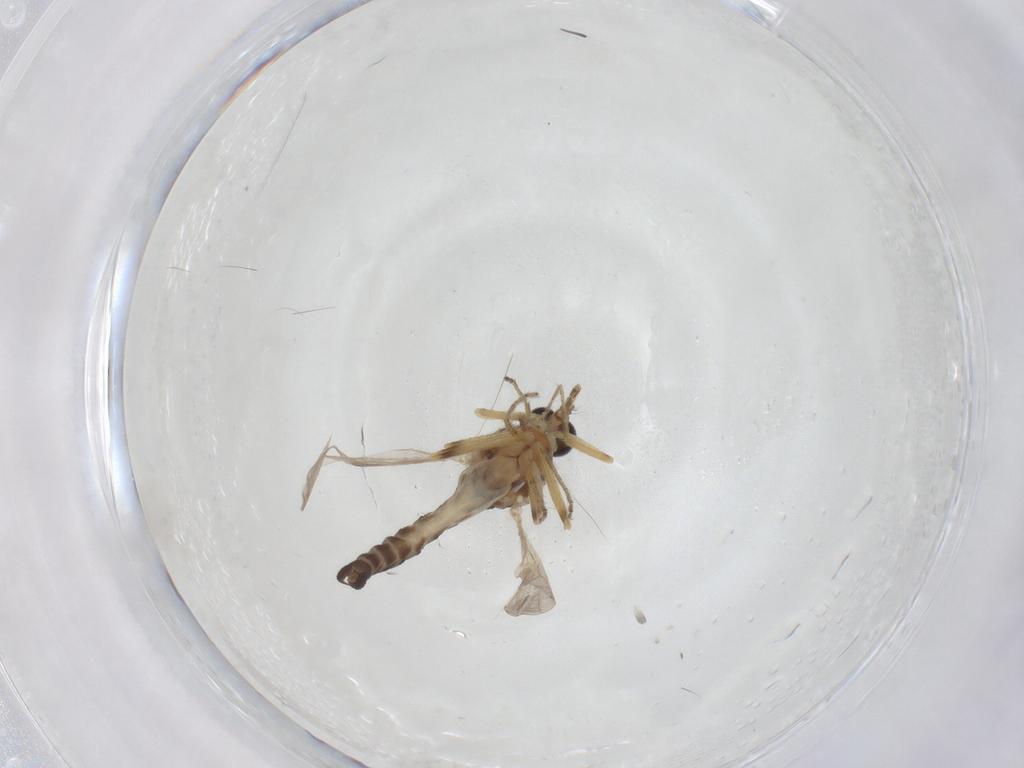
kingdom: Animalia
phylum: Arthropoda
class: Insecta
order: Diptera
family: Ceratopogonidae
